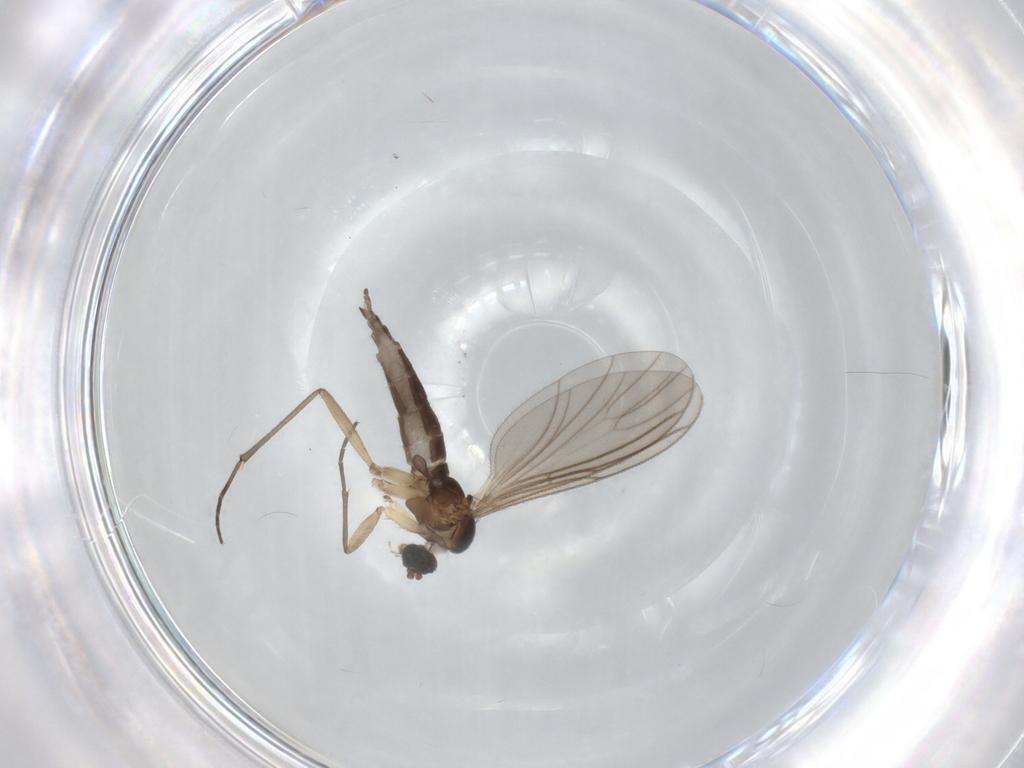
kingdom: Animalia
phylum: Arthropoda
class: Insecta
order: Diptera
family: Sciaridae
